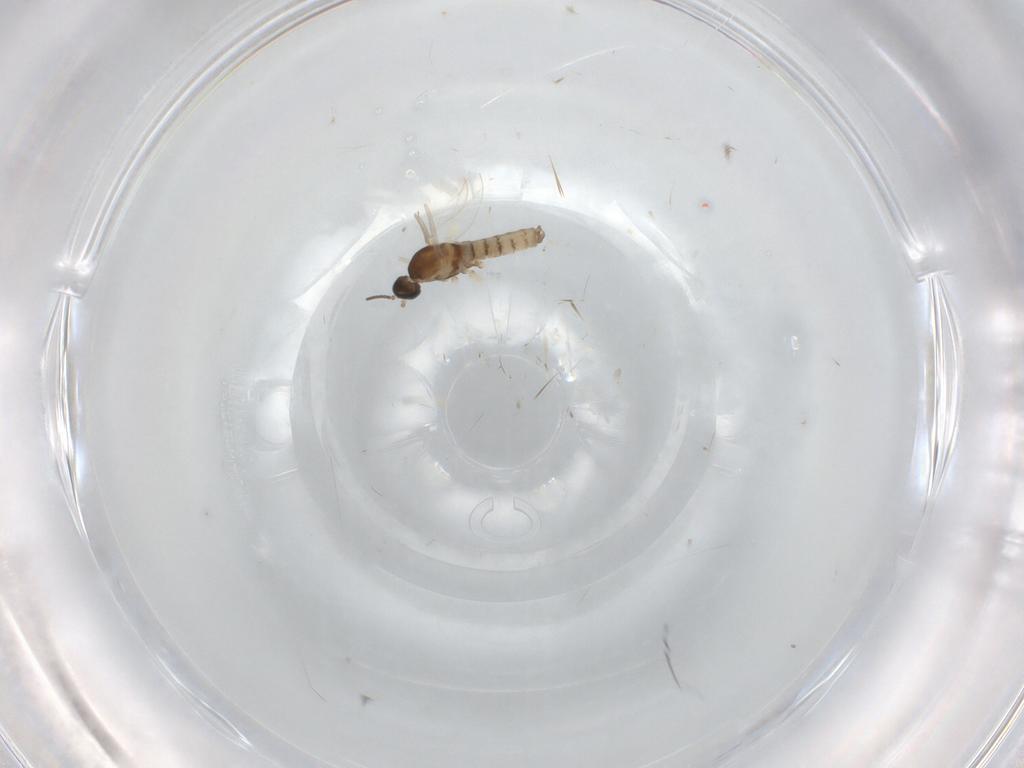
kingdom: Animalia
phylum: Arthropoda
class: Insecta
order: Diptera
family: Cecidomyiidae
